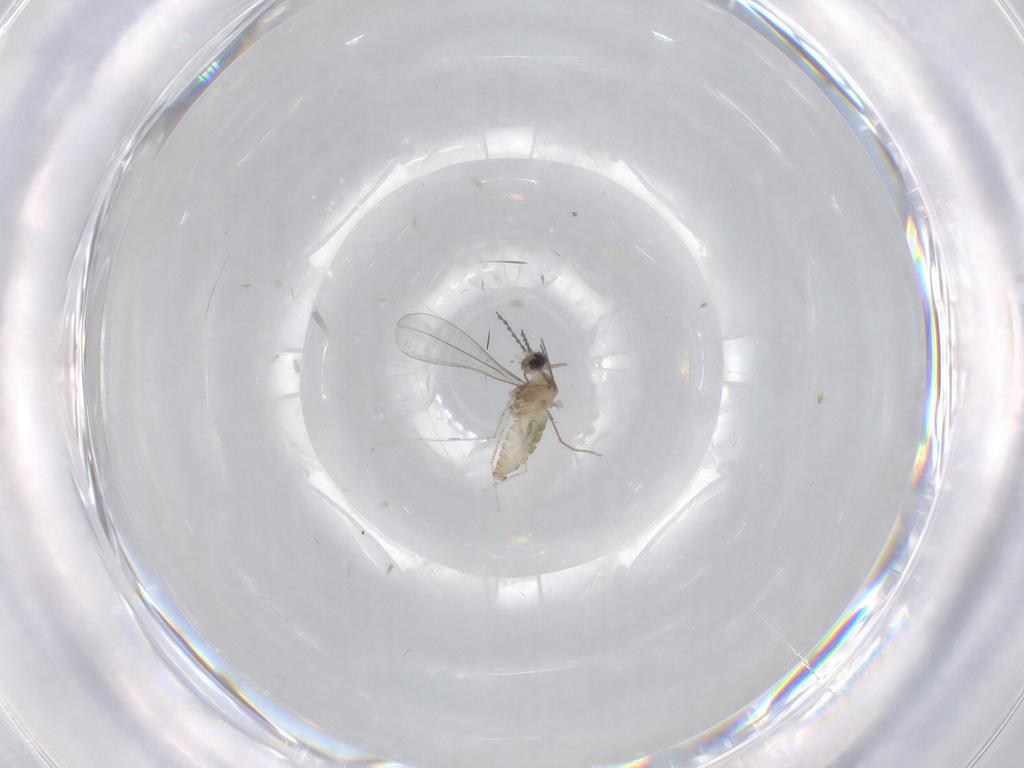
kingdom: Animalia
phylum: Arthropoda
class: Insecta
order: Diptera
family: Cecidomyiidae
